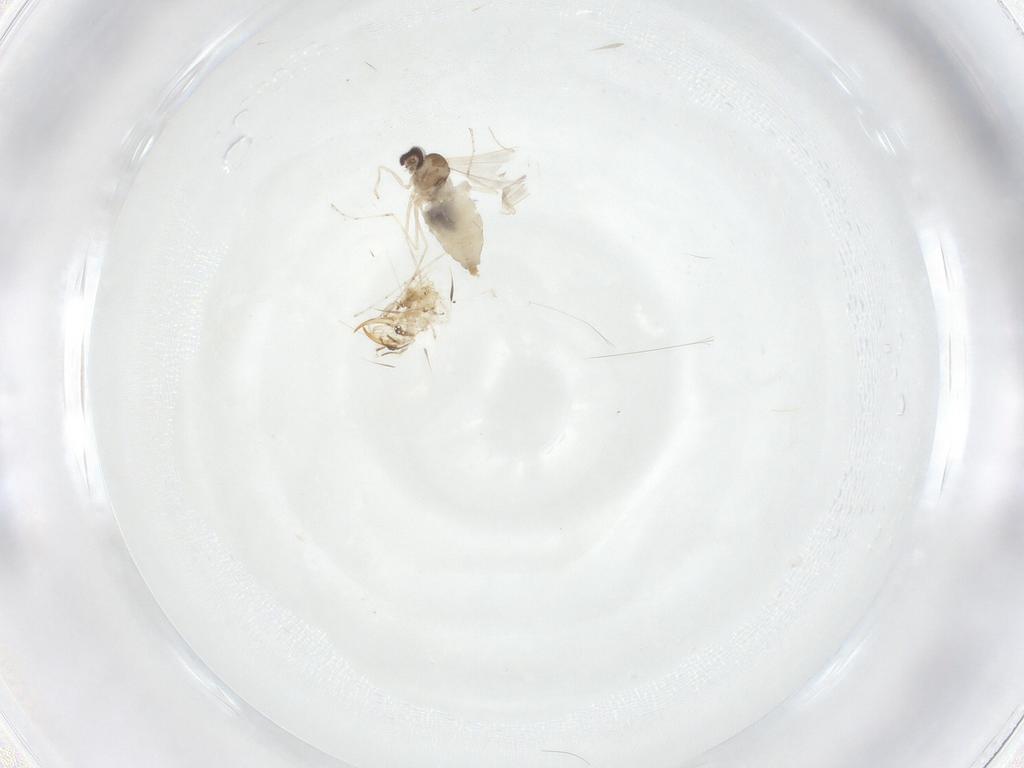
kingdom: Animalia
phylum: Arthropoda
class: Insecta
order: Diptera
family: Cecidomyiidae
